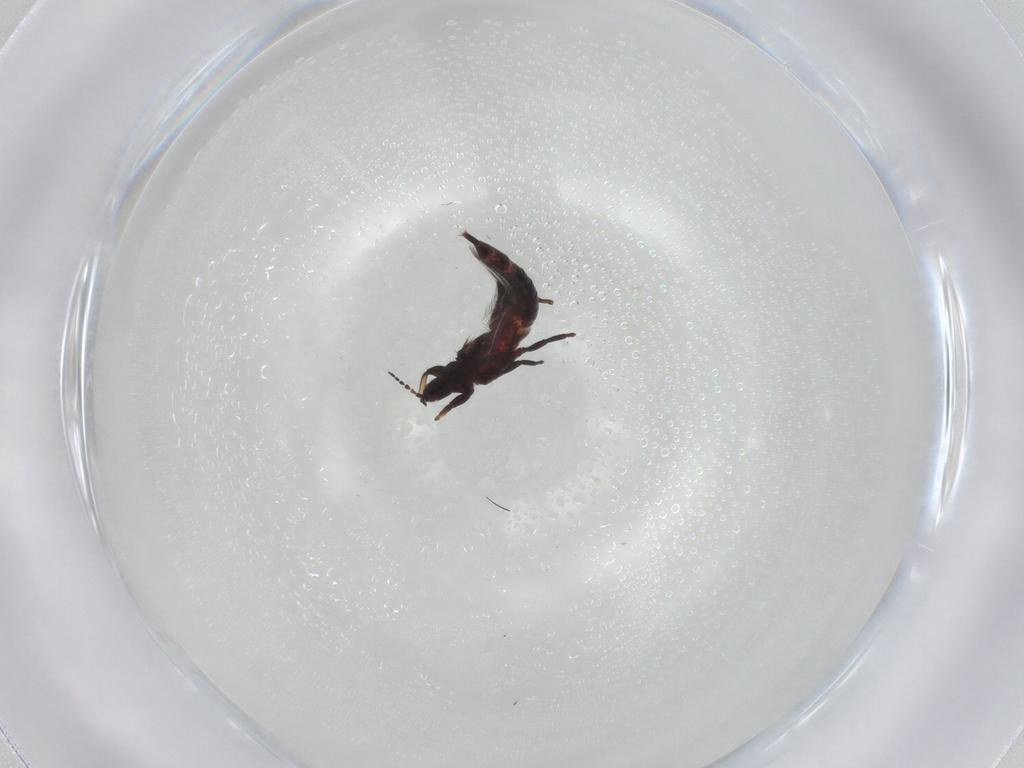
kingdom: Animalia
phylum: Arthropoda
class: Insecta
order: Thysanoptera
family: Phlaeothripidae
